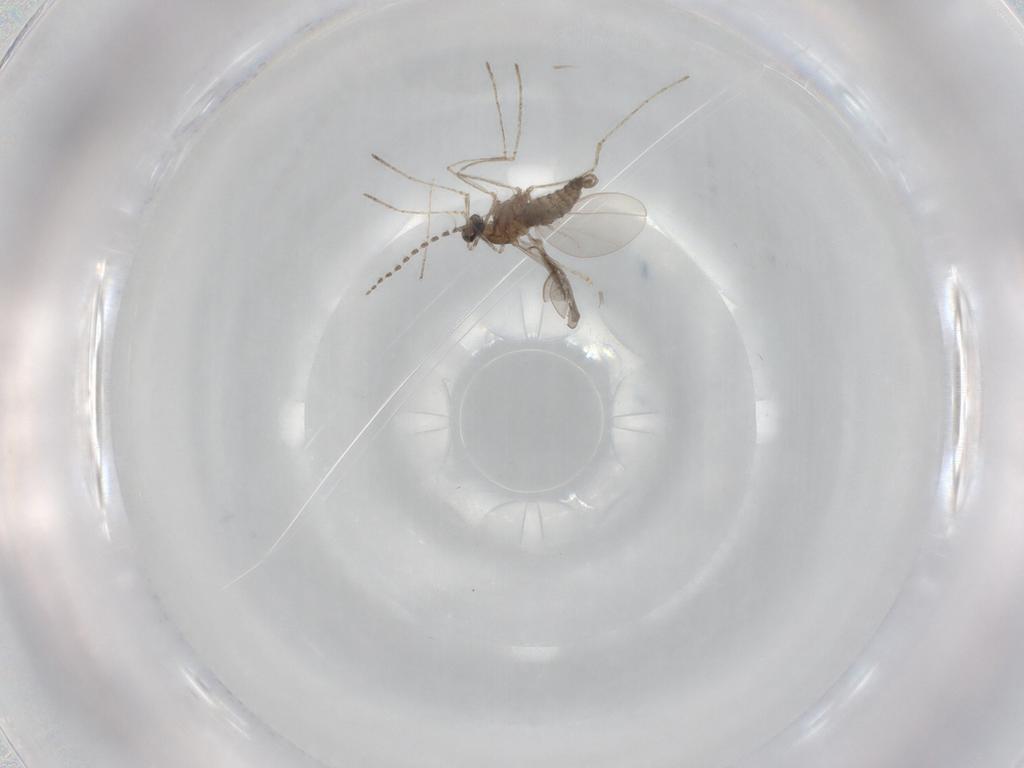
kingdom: Animalia
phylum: Arthropoda
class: Insecta
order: Diptera
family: Cecidomyiidae
